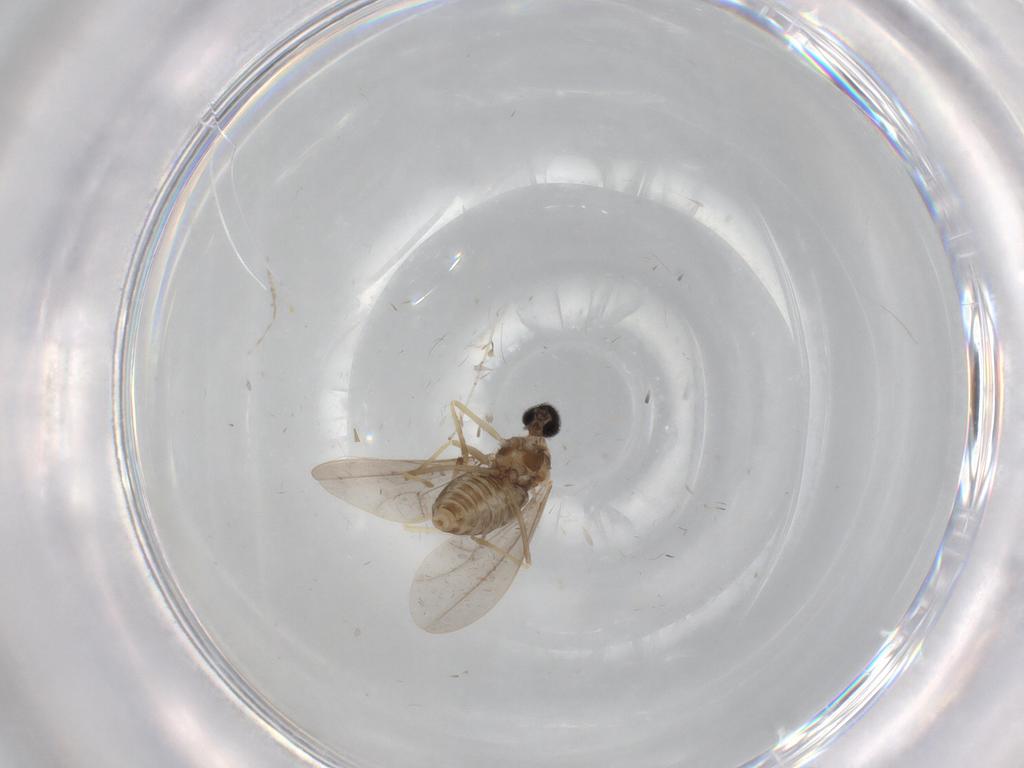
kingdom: Animalia
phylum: Arthropoda
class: Insecta
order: Diptera
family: Cecidomyiidae
